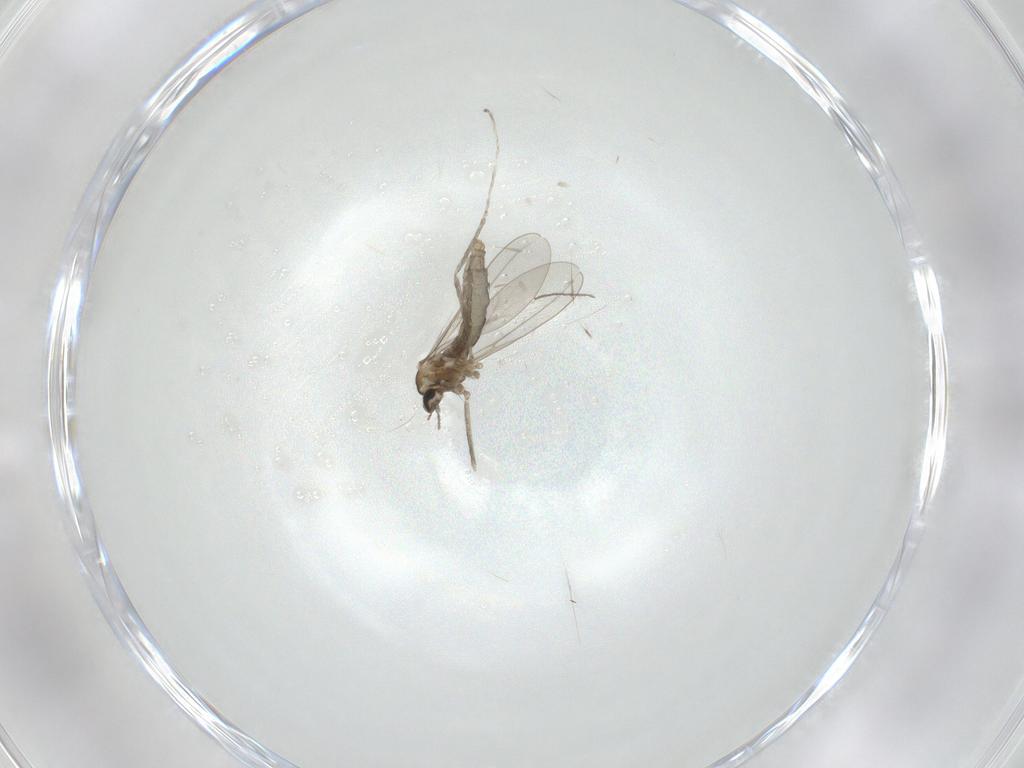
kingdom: Animalia
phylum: Arthropoda
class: Insecta
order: Diptera
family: Cecidomyiidae
